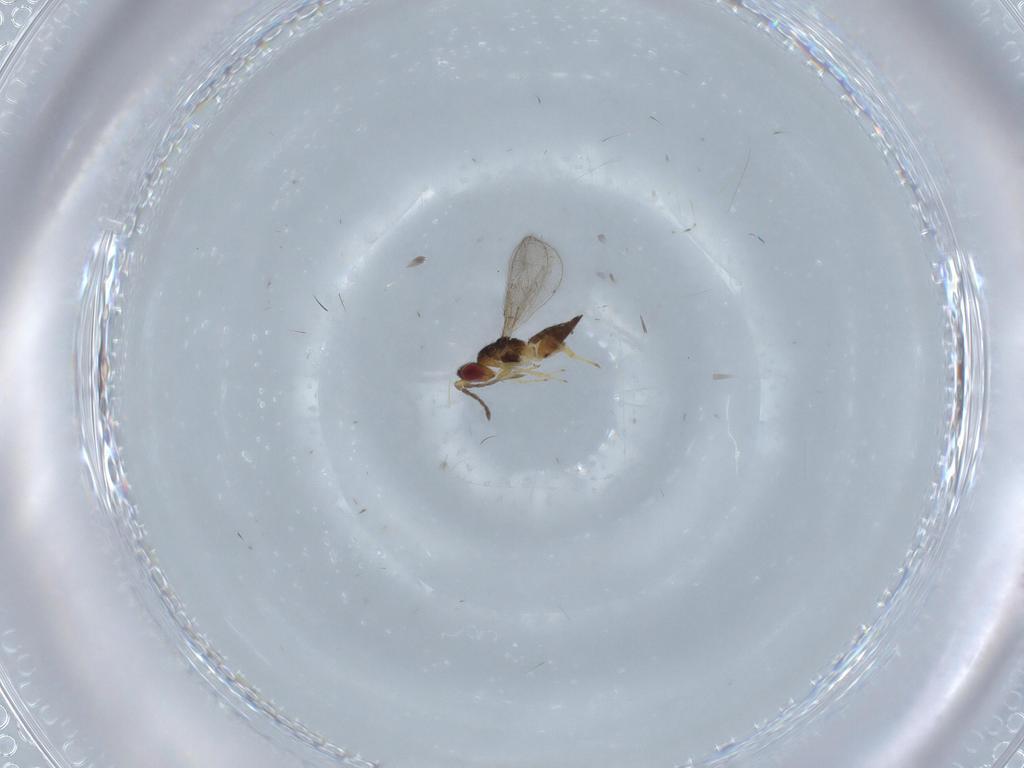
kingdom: Animalia
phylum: Arthropoda
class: Insecta
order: Hymenoptera
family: Eulophidae
